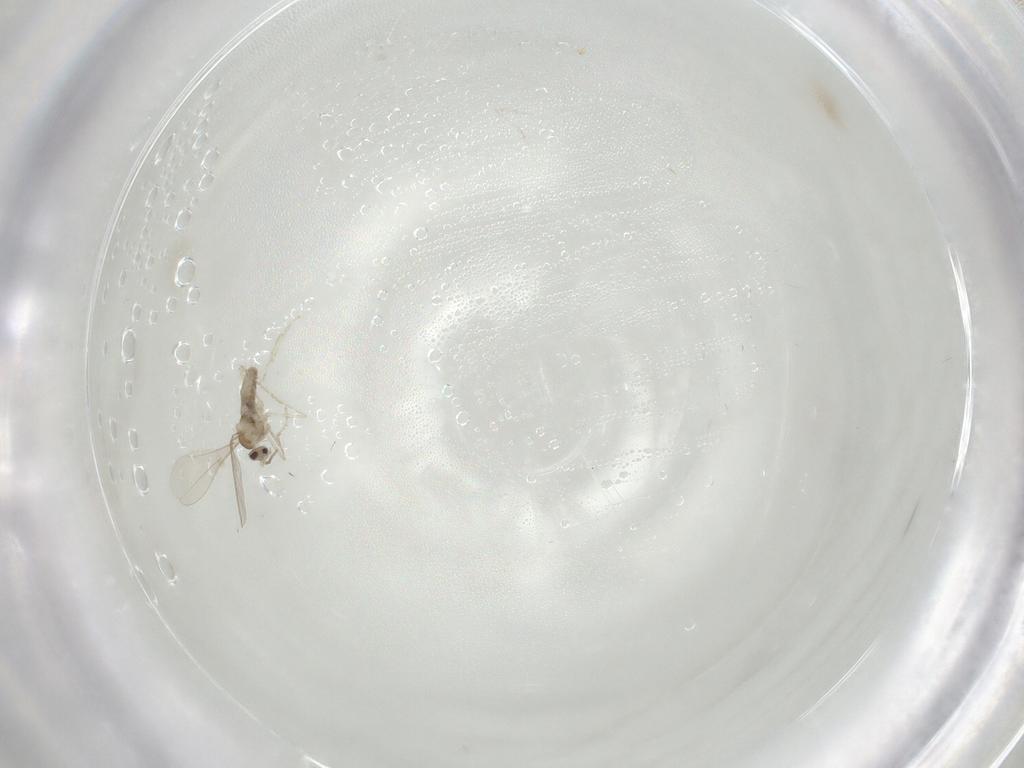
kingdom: Animalia
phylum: Arthropoda
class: Insecta
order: Diptera
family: Cecidomyiidae
